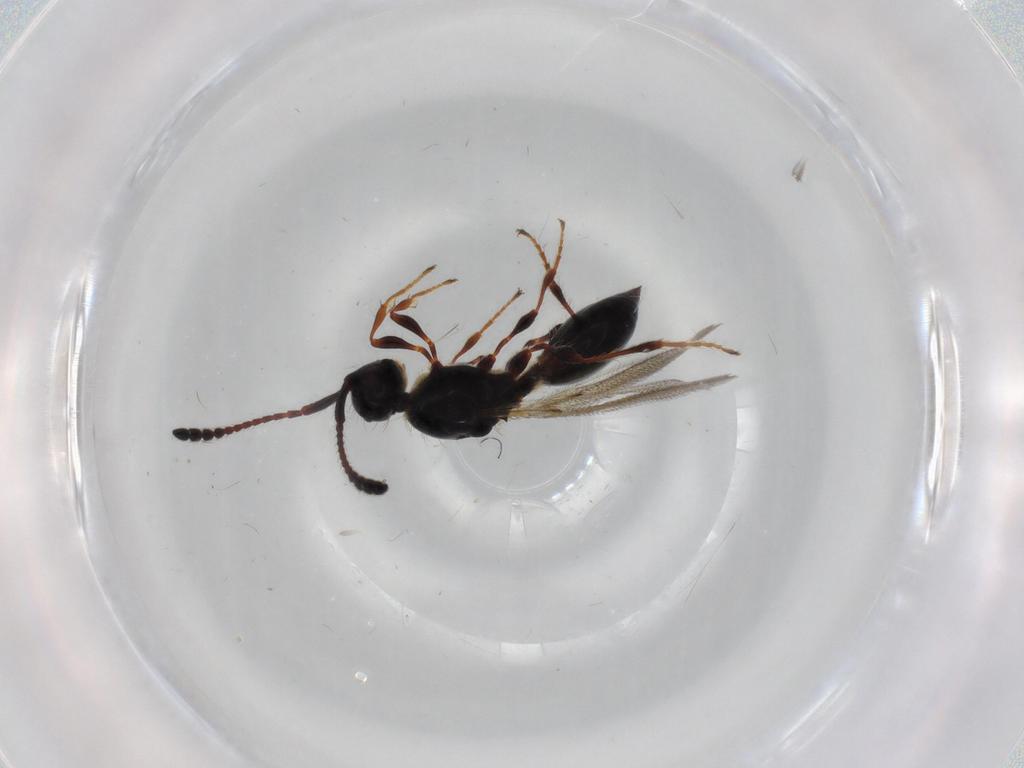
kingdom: Animalia
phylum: Arthropoda
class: Insecta
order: Hymenoptera
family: Diapriidae
